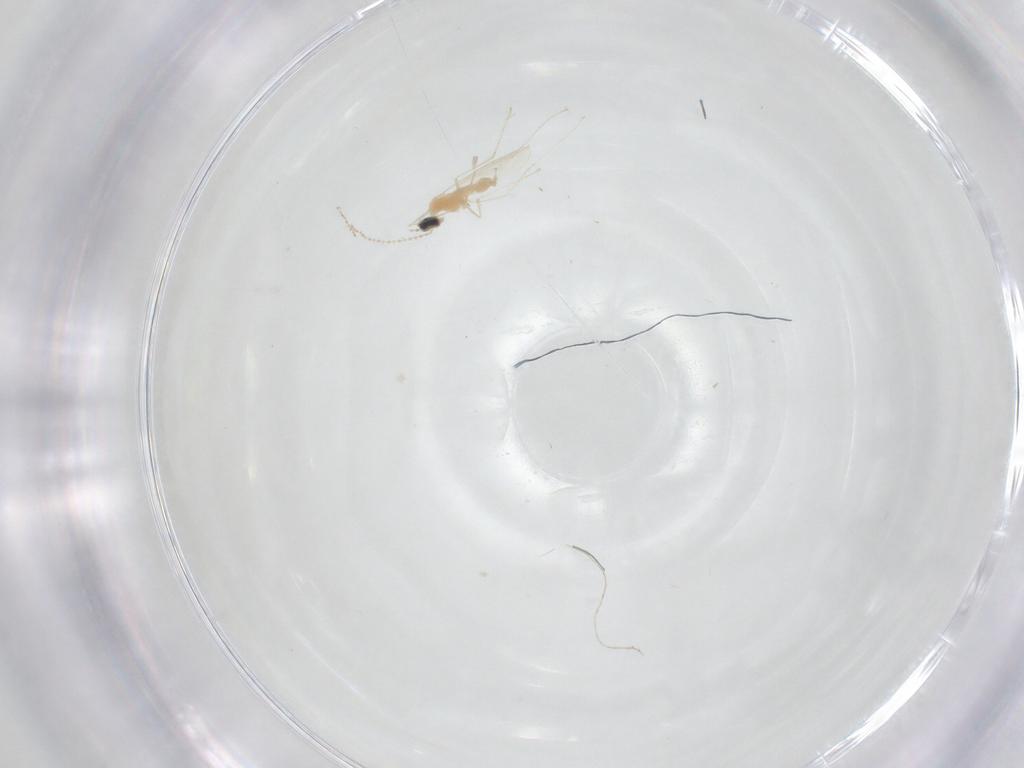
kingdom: Animalia
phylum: Arthropoda
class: Insecta
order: Diptera
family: Cecidomyiidae
